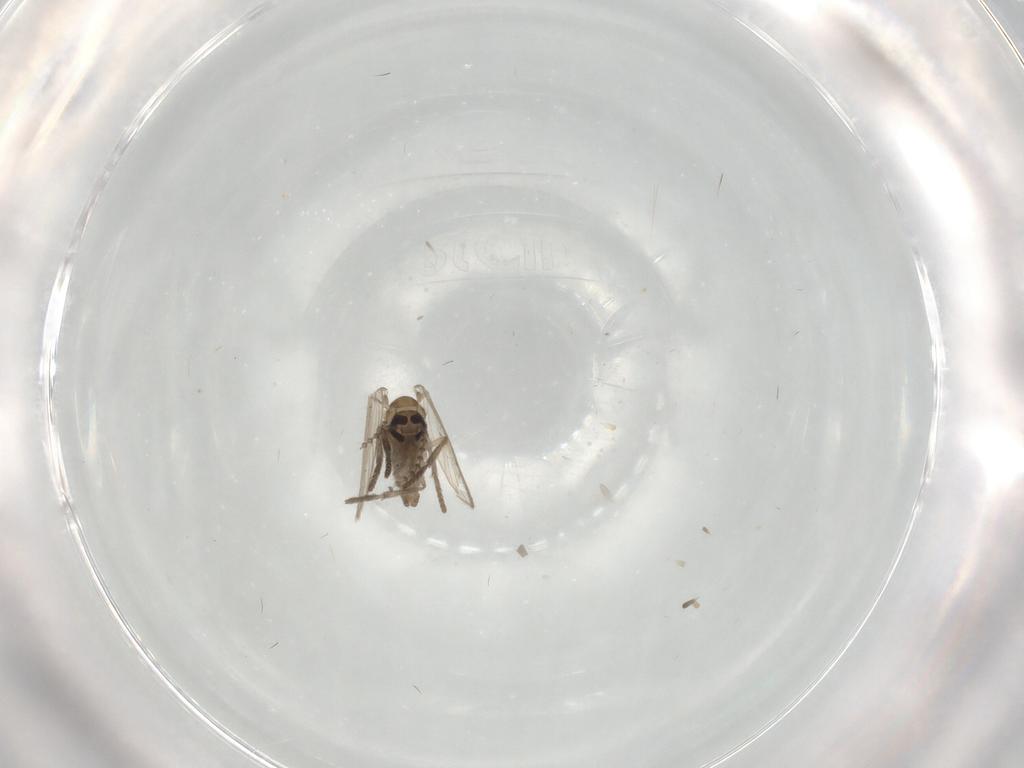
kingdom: Animalia
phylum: Arthropoda
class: Insecta
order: Diptera
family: Psychodidae
